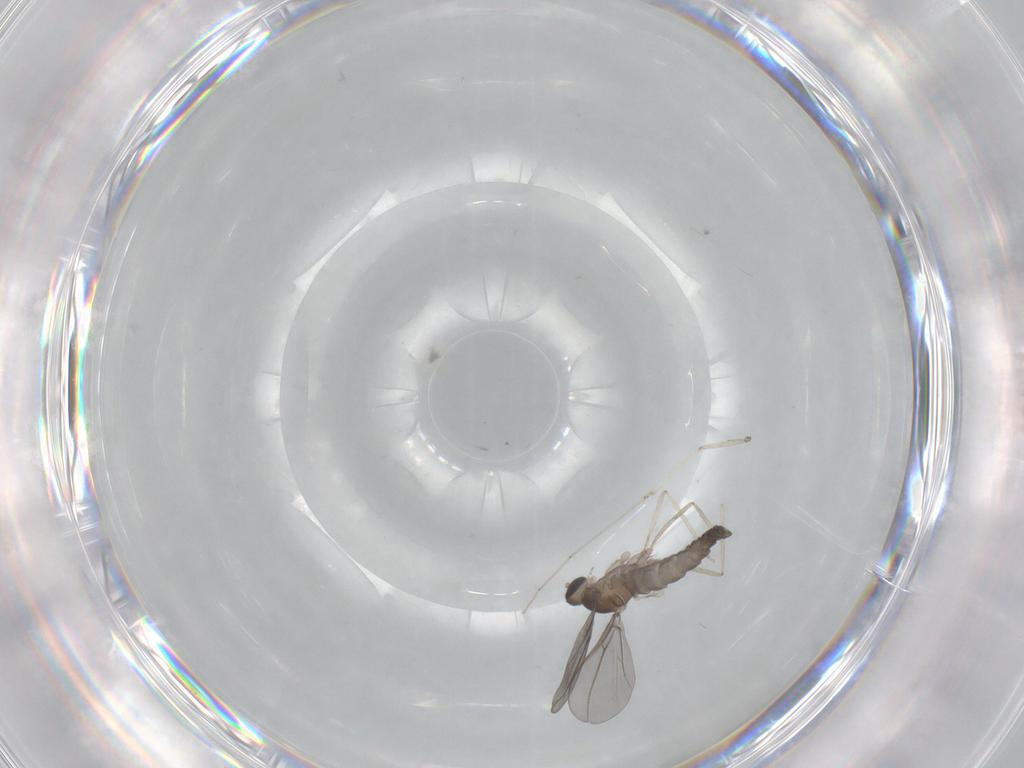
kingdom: Animalia
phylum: Arthropoda
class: Insecta
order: Diptera
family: Cecidomyiidae
